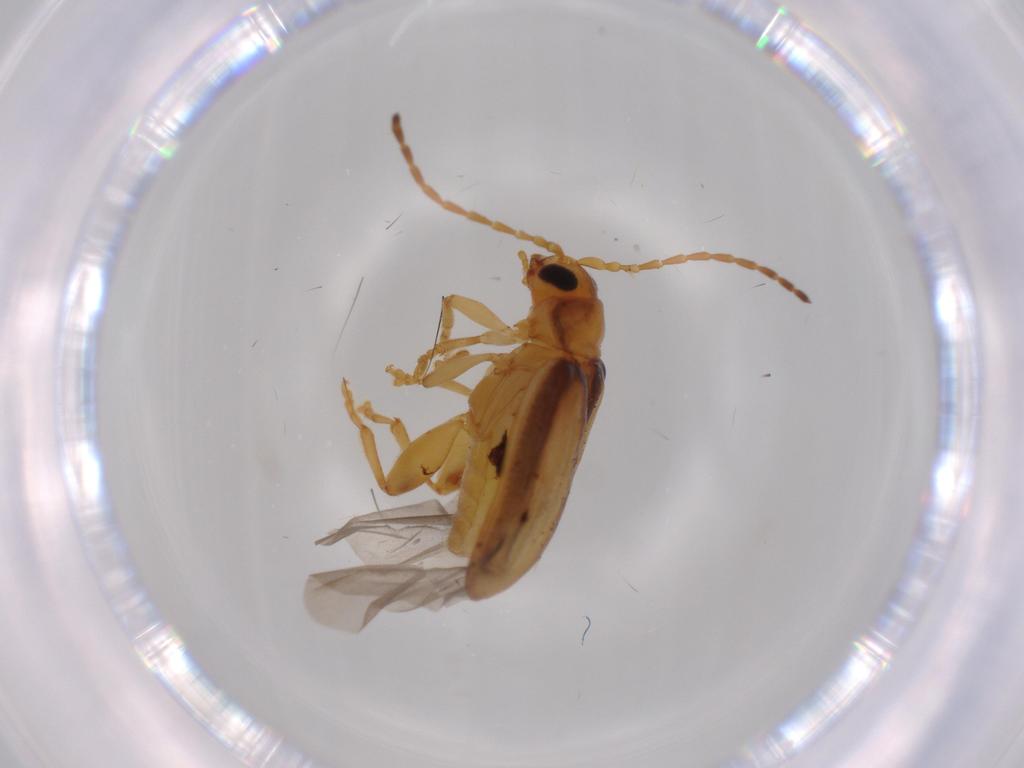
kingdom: Animalia
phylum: Arthropoda
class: Insecta
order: Coleoptera
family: Chrysomelidae
